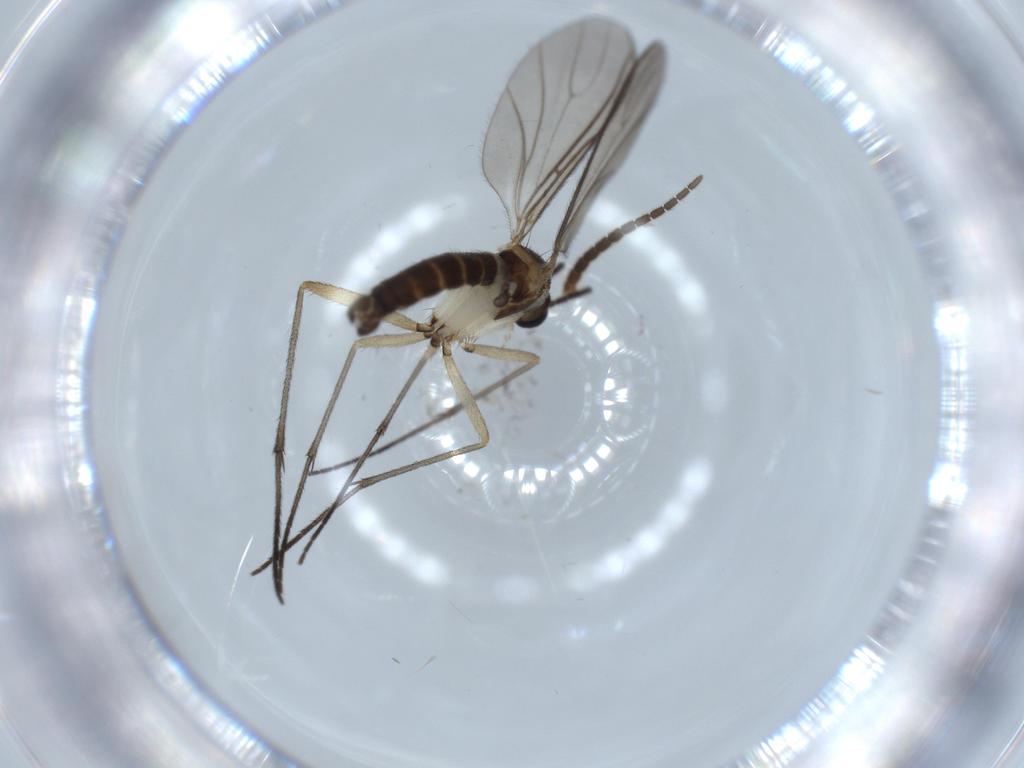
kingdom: Animalia
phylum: Arthropoda
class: Insecta
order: Diptera
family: Sciaridae
